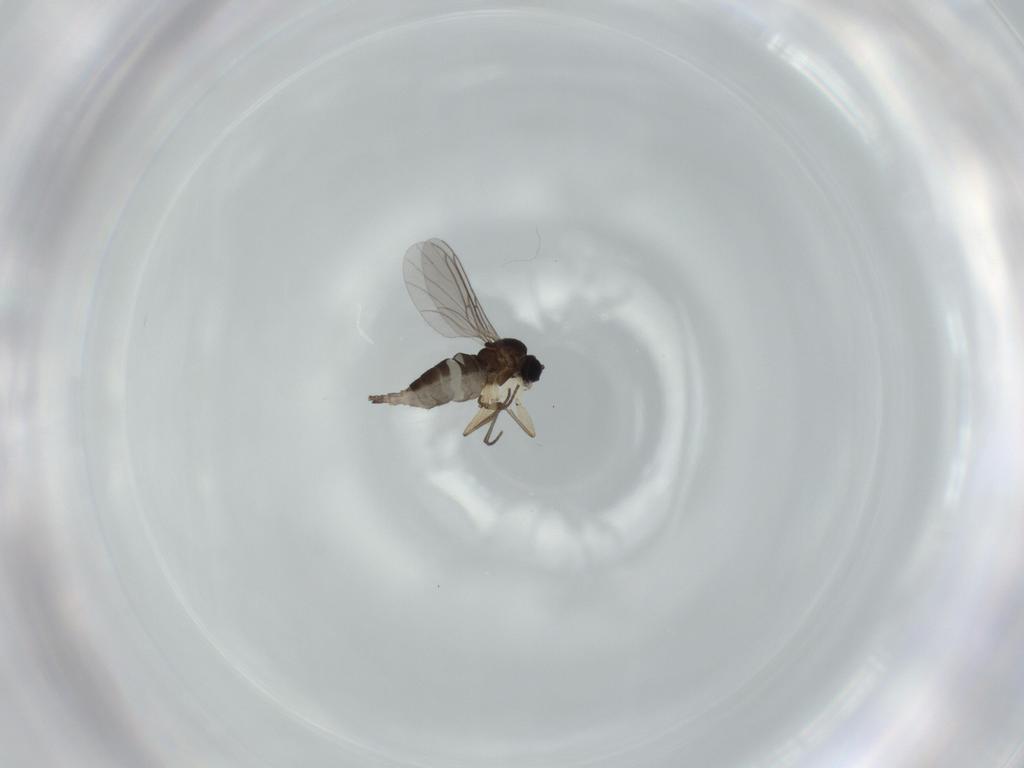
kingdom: Animalia
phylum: Arthropoda
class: Insecta
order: Diptera
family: Sciaridae
